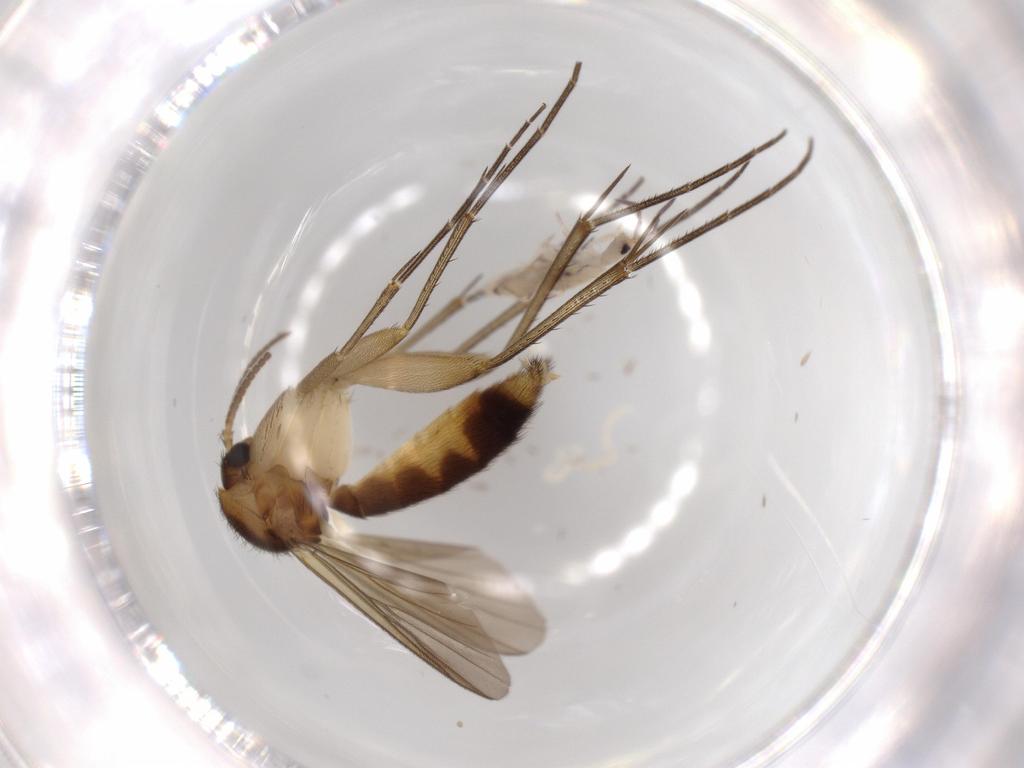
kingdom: Animalia
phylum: Arthropoda
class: Insecta
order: Diptera
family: Mycetophilidae
